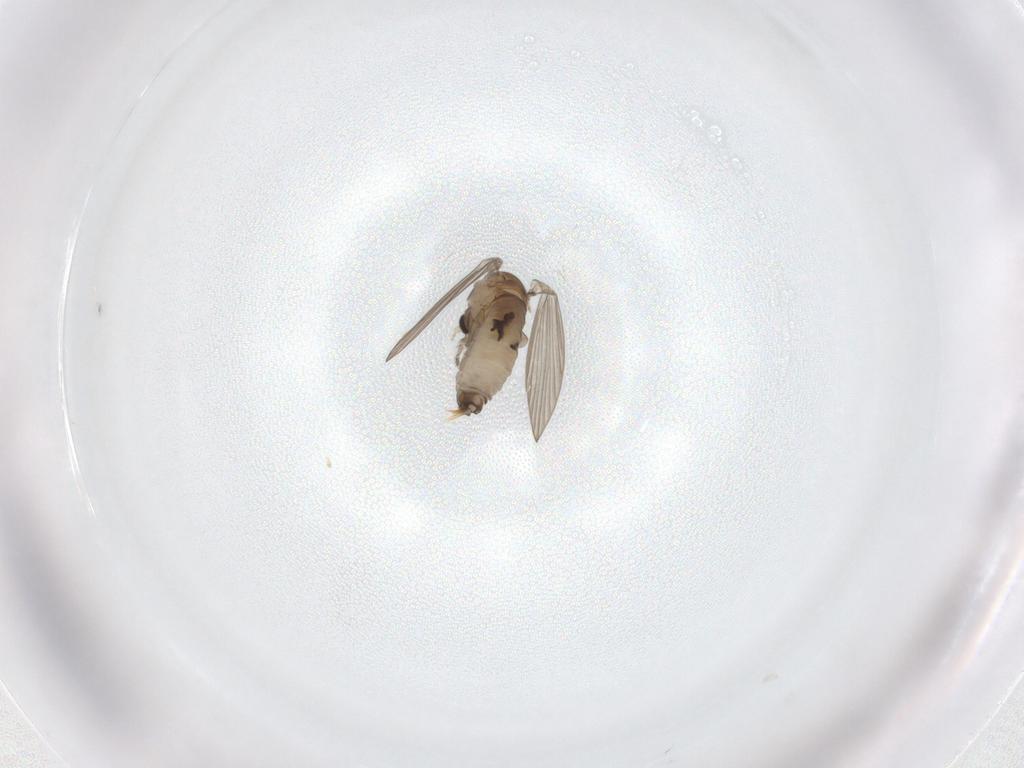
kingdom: Animalia
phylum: Arthropoda
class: Insecta
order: Diptera
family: Psychodidae
